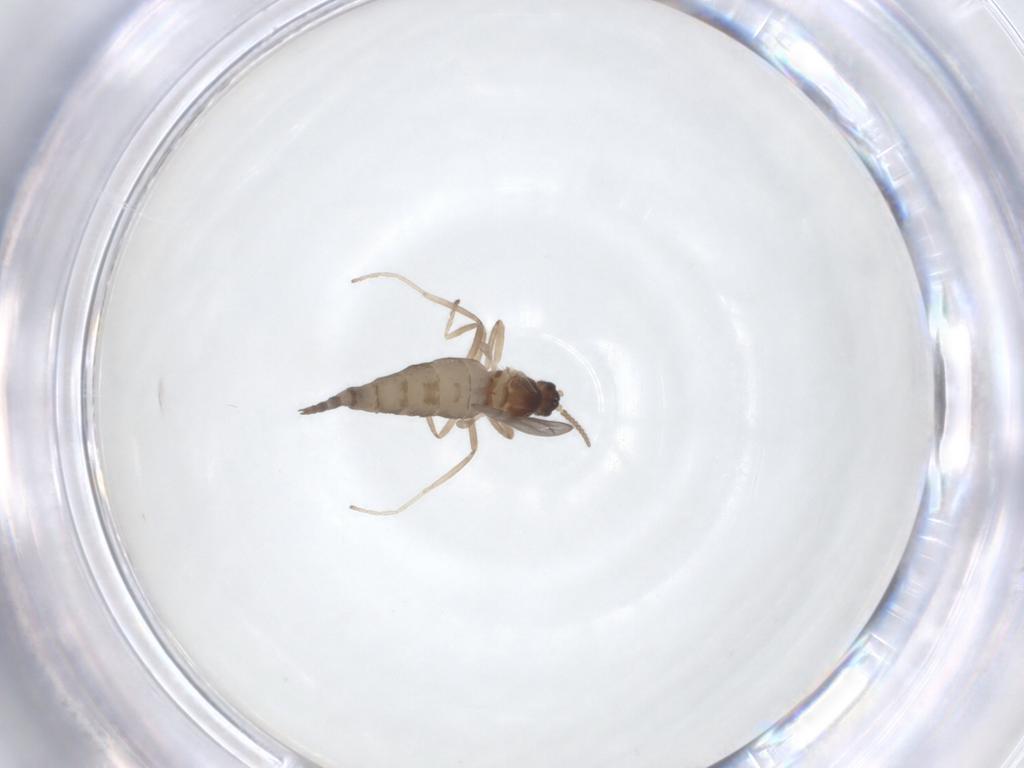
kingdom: Animalia
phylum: Arthropoda
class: Insecta
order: Diptera
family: Cecidomyiidae
